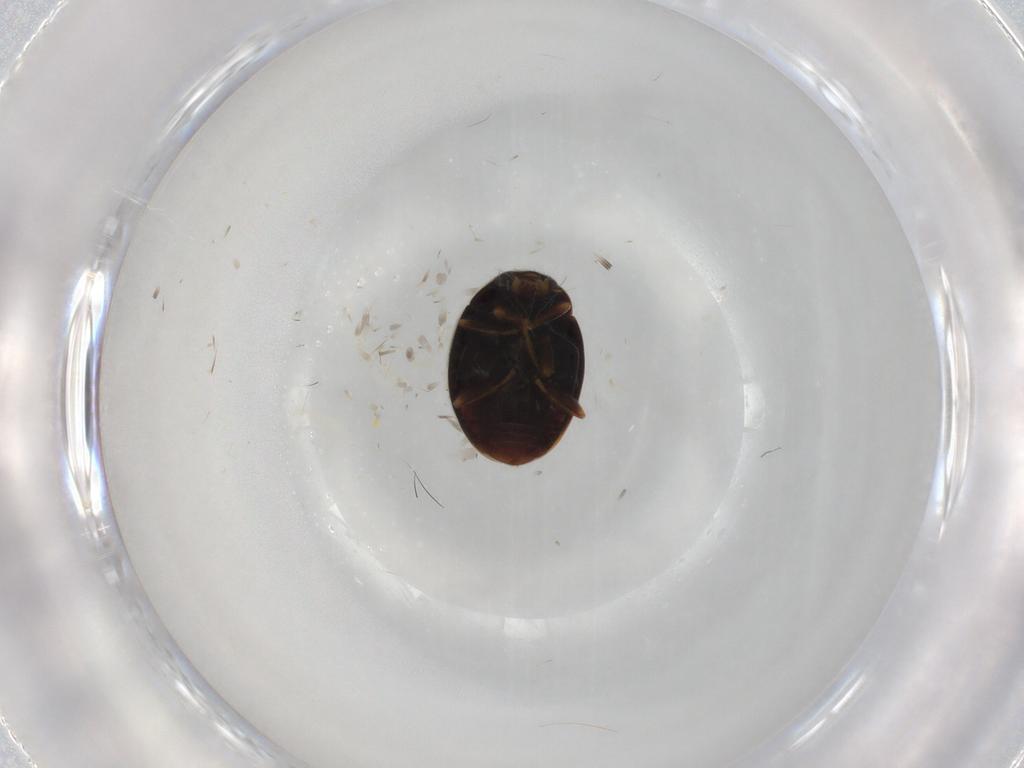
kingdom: Animalia
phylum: Arthropoda
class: Insecta
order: Coleoptera
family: Coccinellidae
